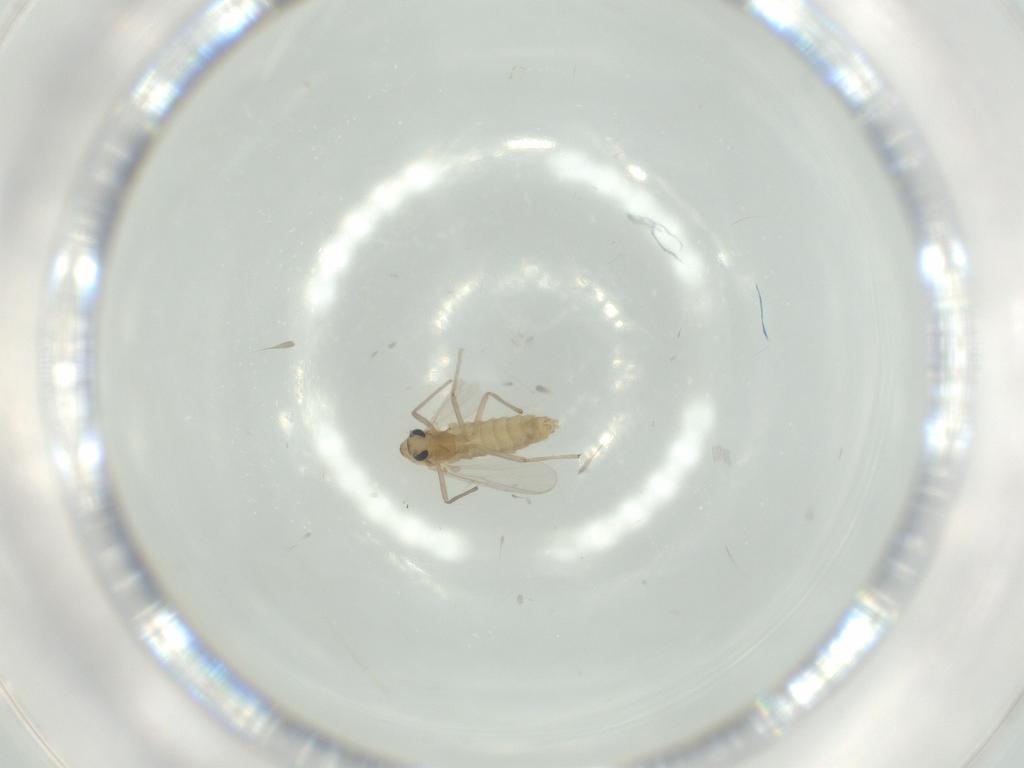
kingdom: Animalia
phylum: Arthropoda
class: Insecta
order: Diptera
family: Chironomidae
